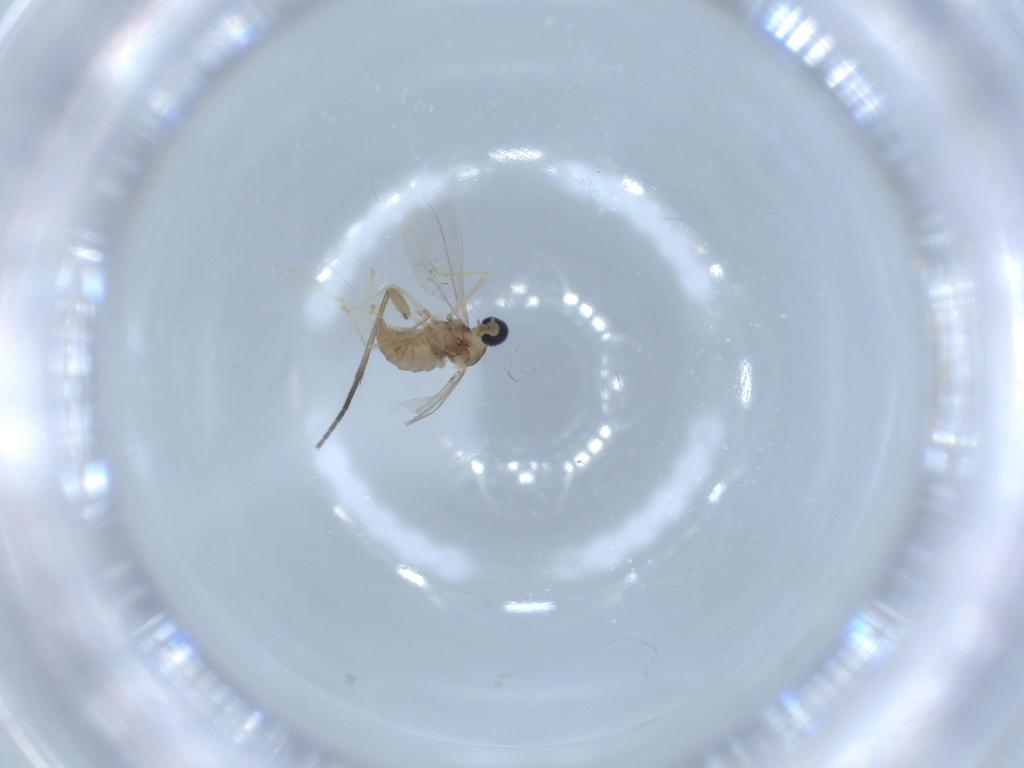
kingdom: Animalia
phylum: Arthropoda
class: Insecta
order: Diptera
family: Cecidomyiidae
